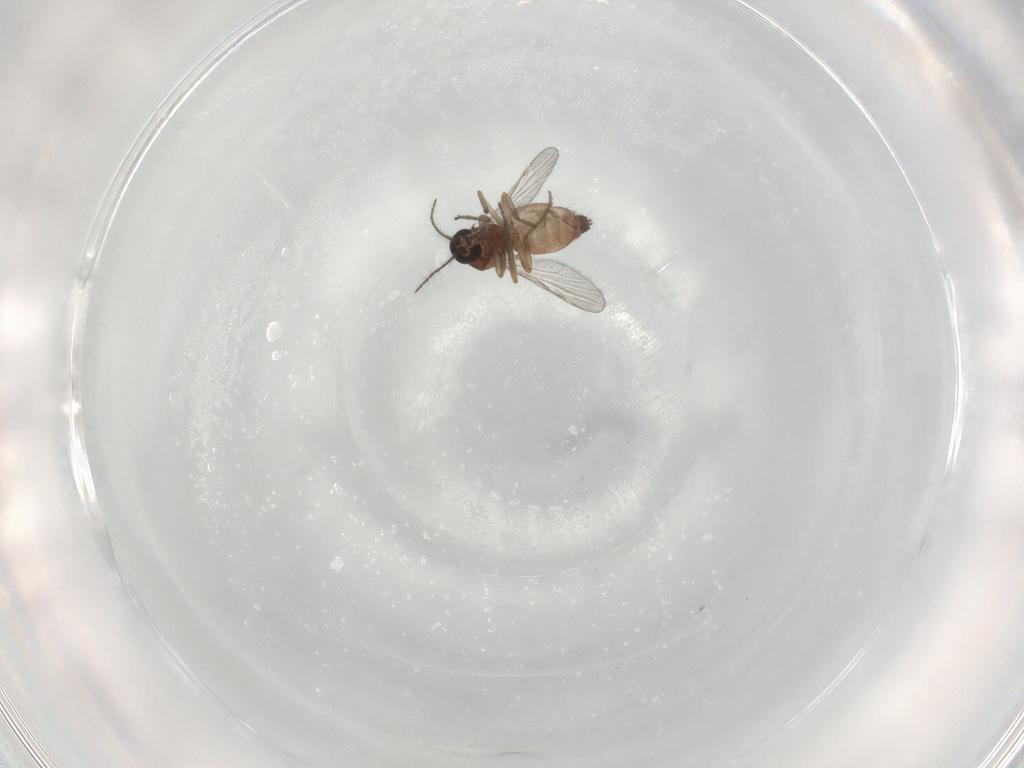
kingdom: Animalia
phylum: Arthropoda
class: Insecta
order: Diptera
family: Ceratopogonidae
